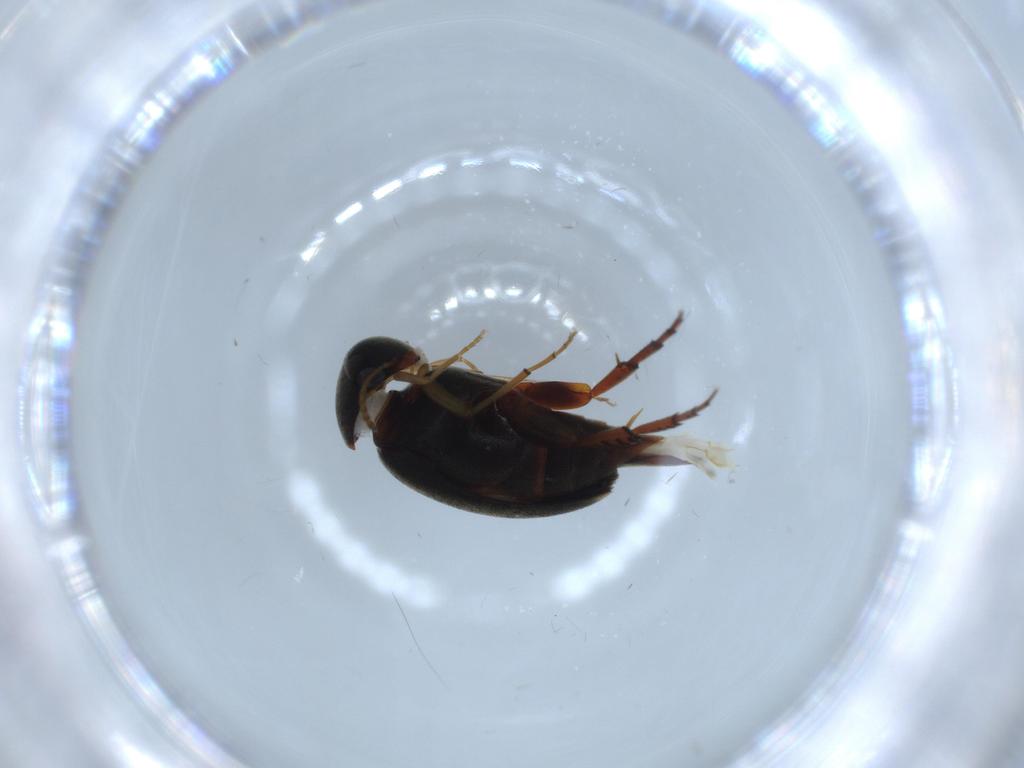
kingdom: Animalia
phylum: Arthropoda
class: Insecta
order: Coleoptera
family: Mordellidae
